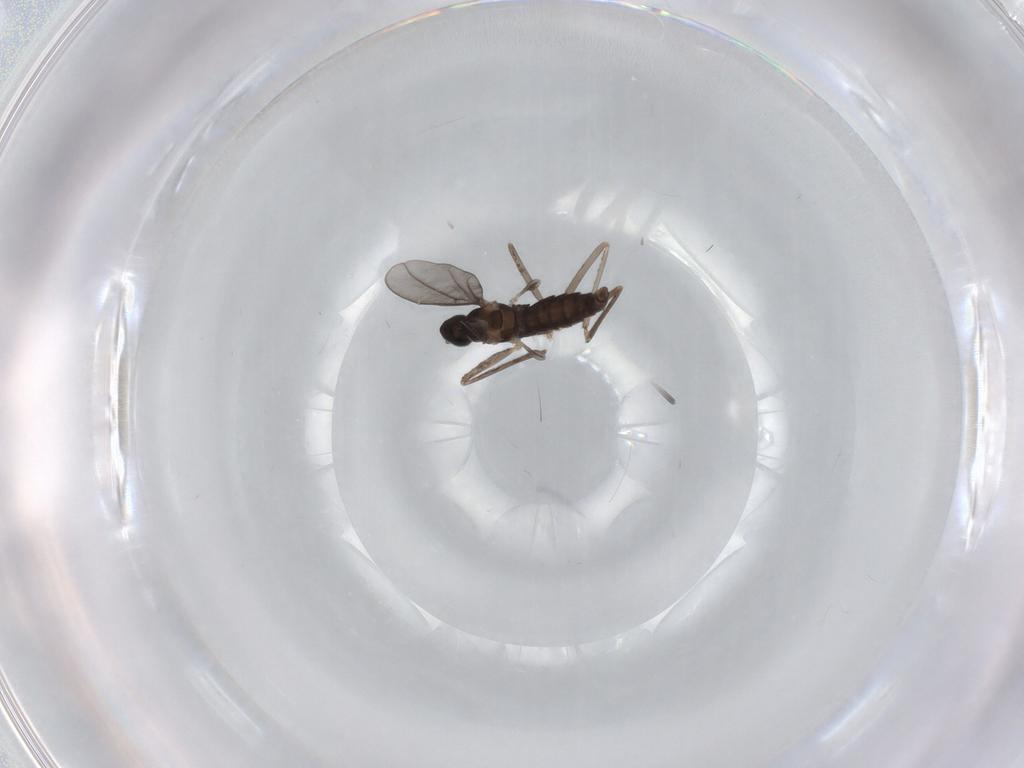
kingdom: Animalia
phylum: Arthropoda
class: Insecta
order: Diptera
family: Cecidomyiidae
